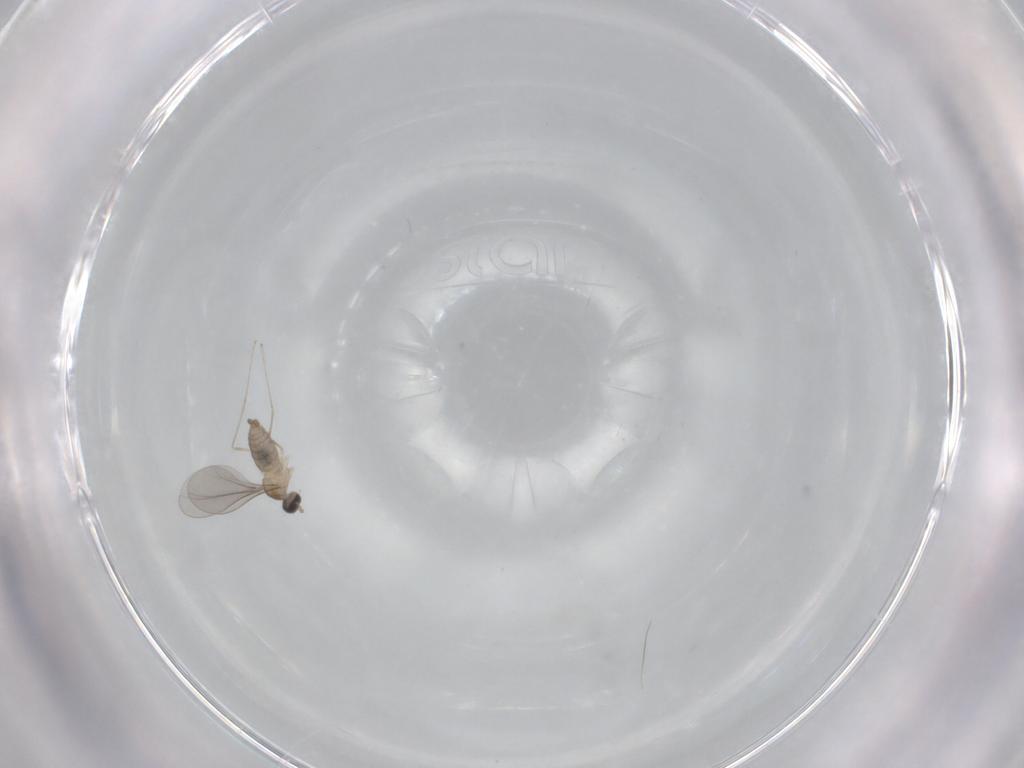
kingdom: Animalia
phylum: Arthropoda
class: Insecta
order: Diptera
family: Cecidomyiidae
